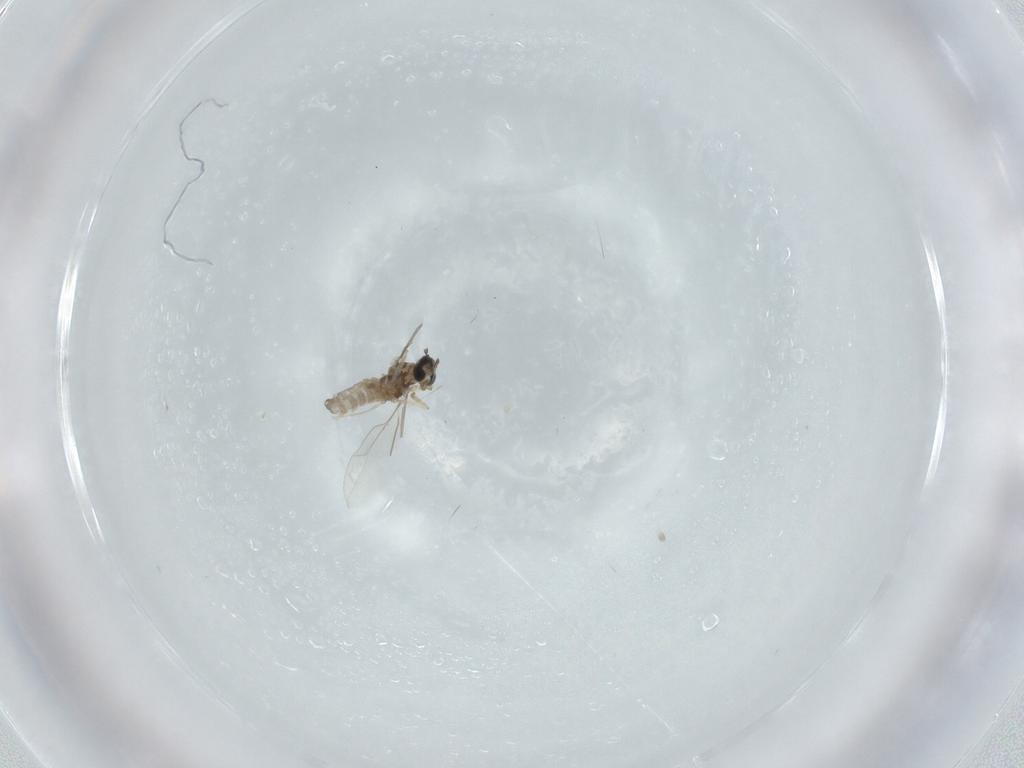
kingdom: Animalia
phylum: Arthropoda
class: Insecta
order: Diptera
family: Cecidomyiidae
